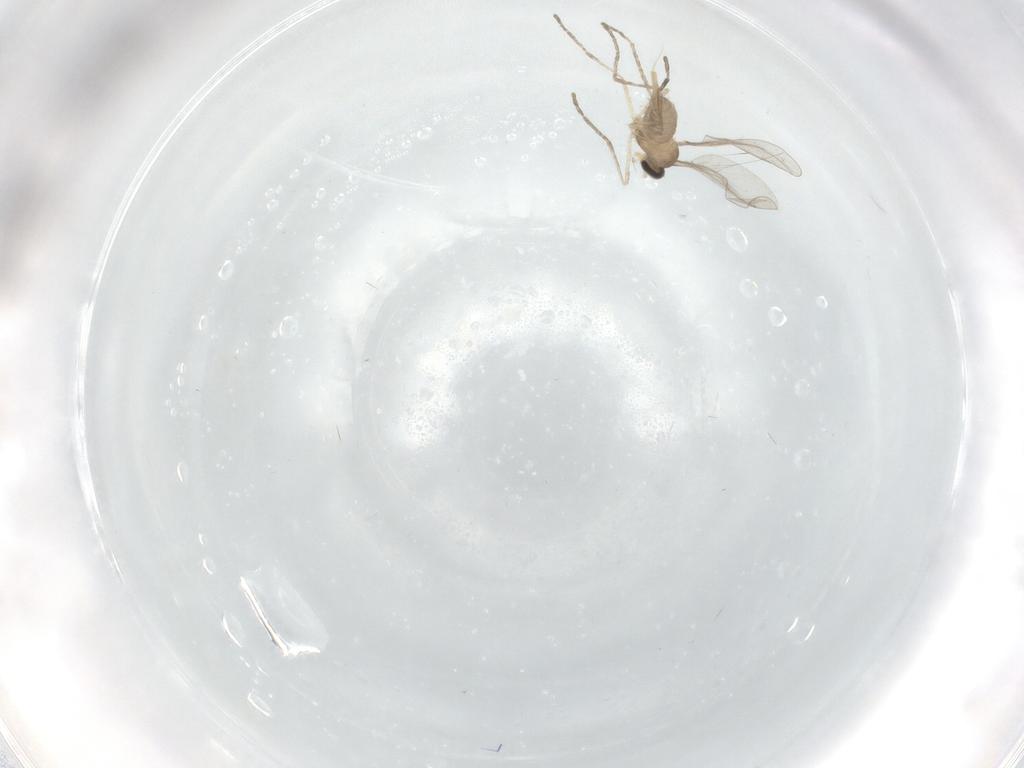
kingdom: Animalia
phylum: Arthropoda
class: Insecta
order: Diptera
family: Cecidomyiidae
